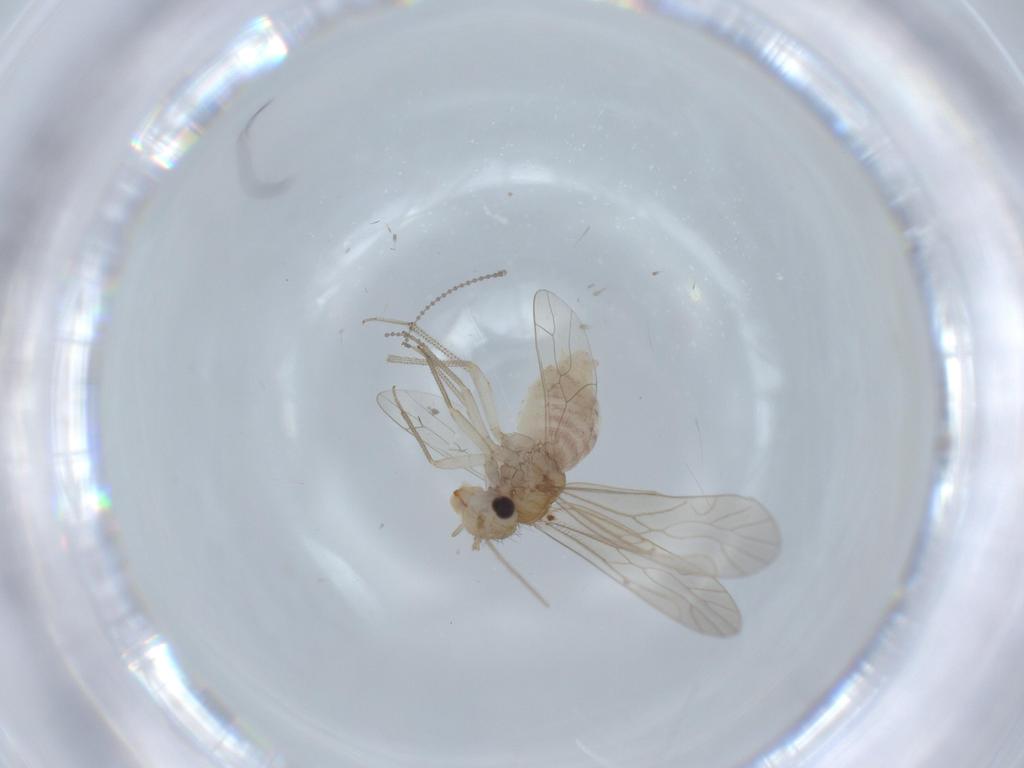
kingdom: Animalia
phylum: Arthropoda
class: Insecta
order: Psocodea
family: Caeciliusidae
